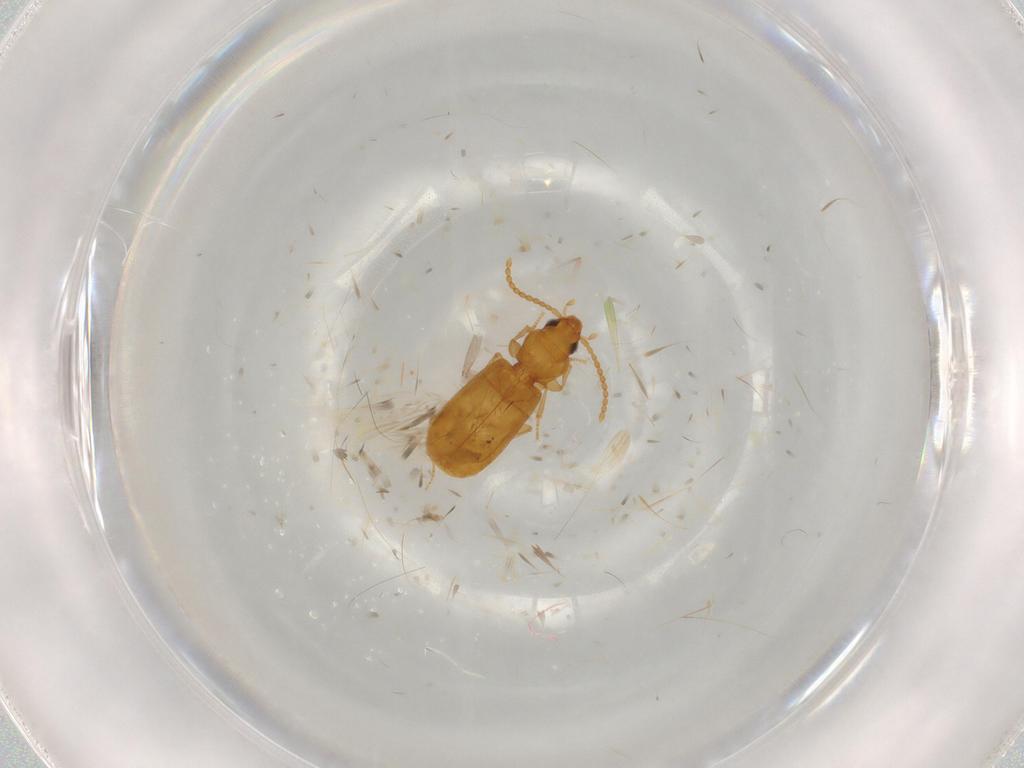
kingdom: Animalia
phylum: Arthropoda
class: Insecta
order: Coleoptera
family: Carabidae
